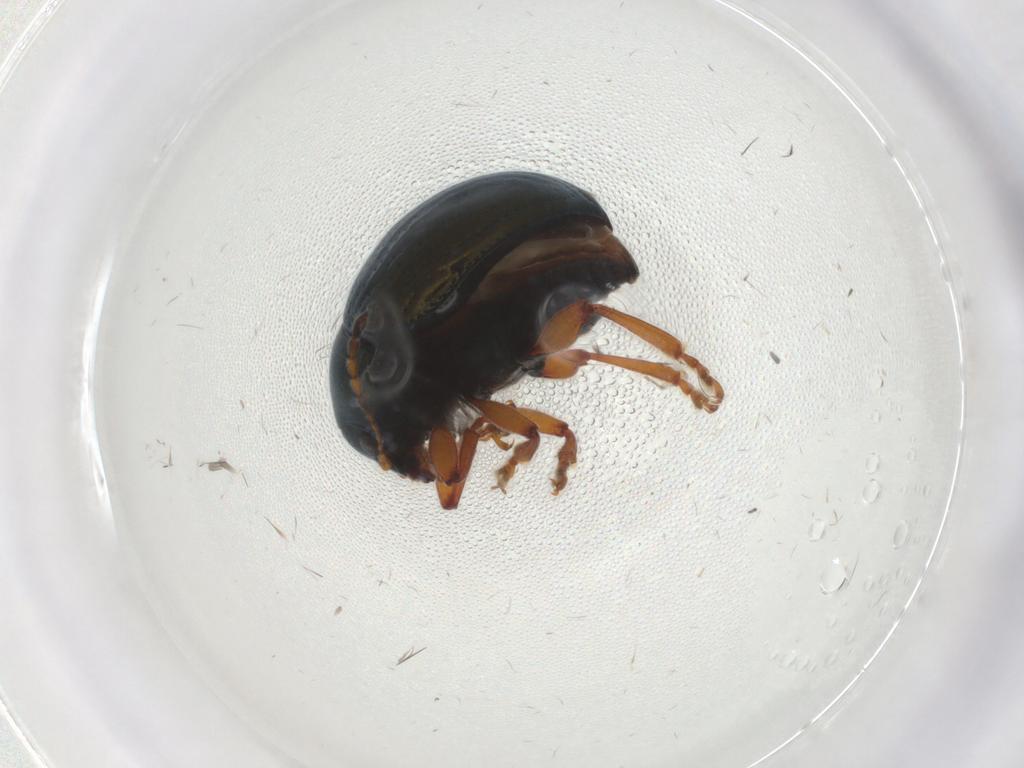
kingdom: Animalia
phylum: Arthropoda
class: Insecta
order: Coleoptera
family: Chrysomelidae
